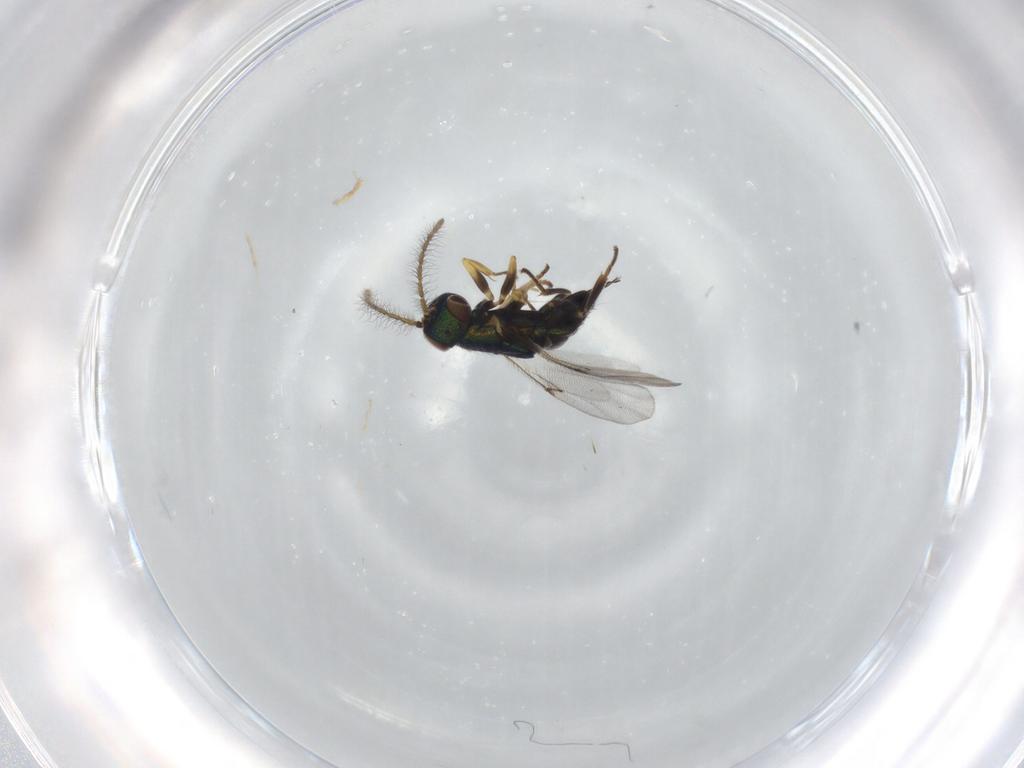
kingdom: Animalia
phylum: Arthropoda
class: Insecta
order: Hymenoptera
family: Encyrtidae
